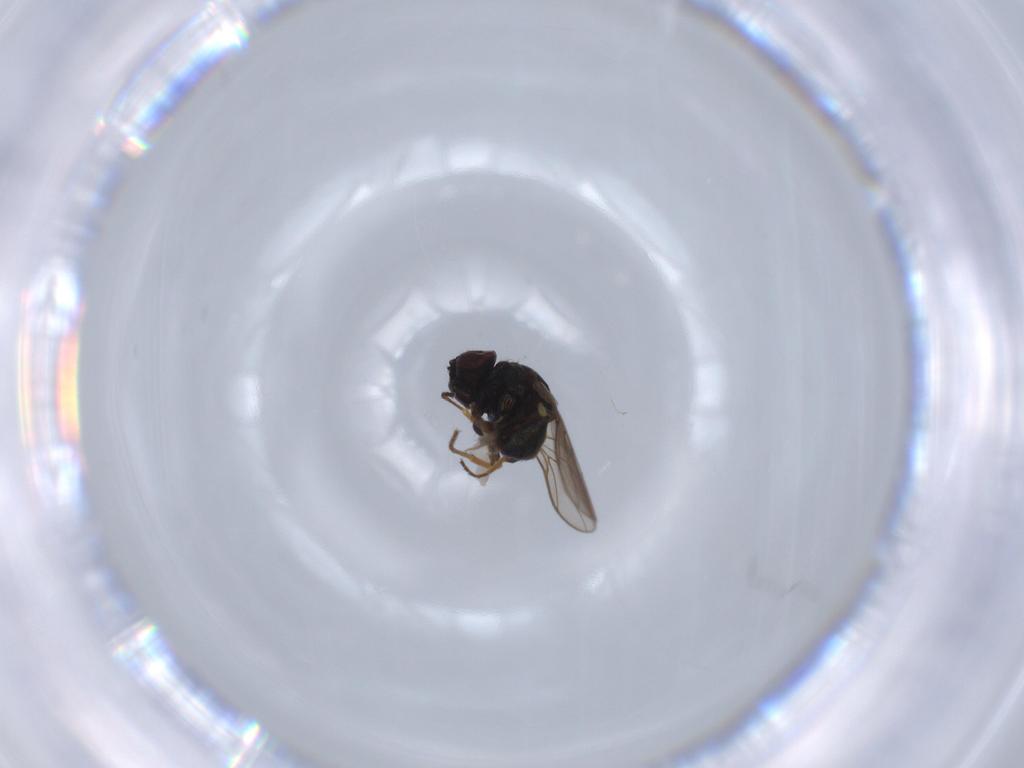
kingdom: Animalia
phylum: Arthropoda
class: Insecta
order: Diptera
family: Chloropidae
